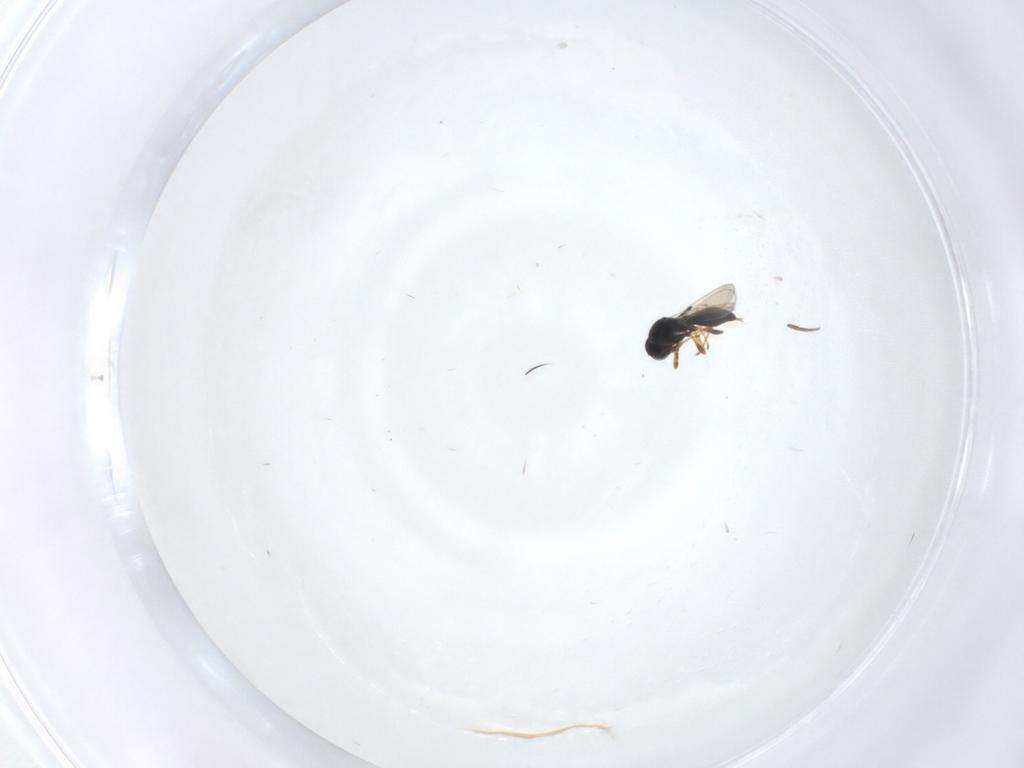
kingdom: Animalia
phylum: Arthropoda
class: Insecta
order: Hymenoptera
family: Platygastridae
